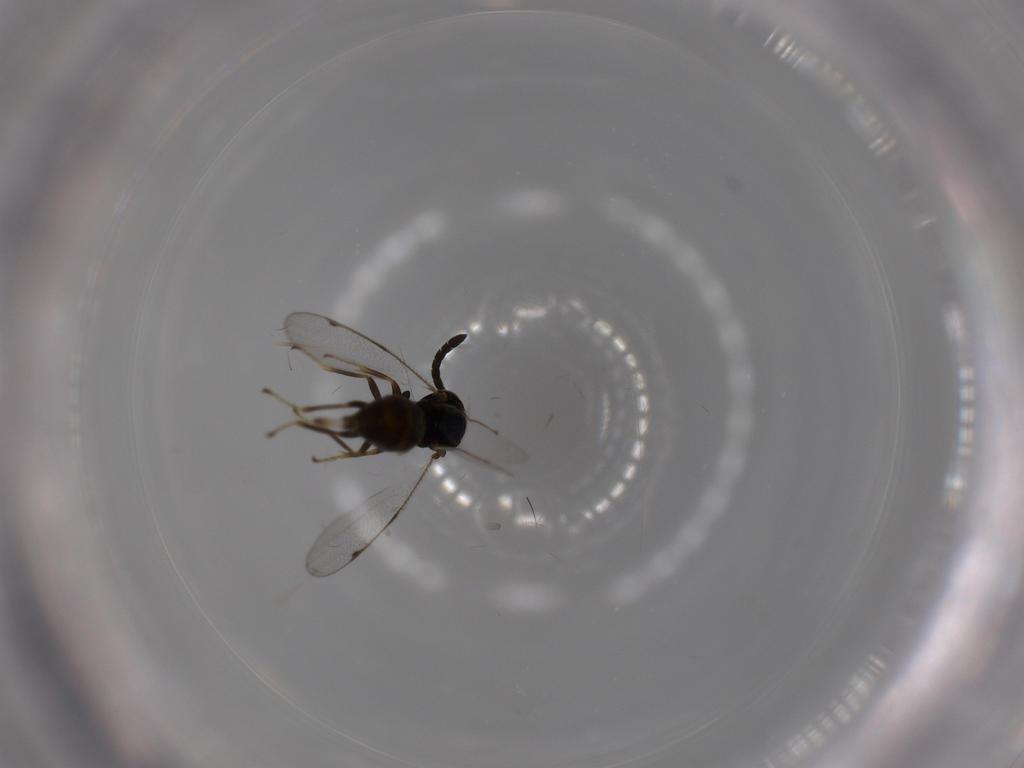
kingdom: Animalia
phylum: Arthropoda
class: Insecta
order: Hymenoptera
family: Torymidae
